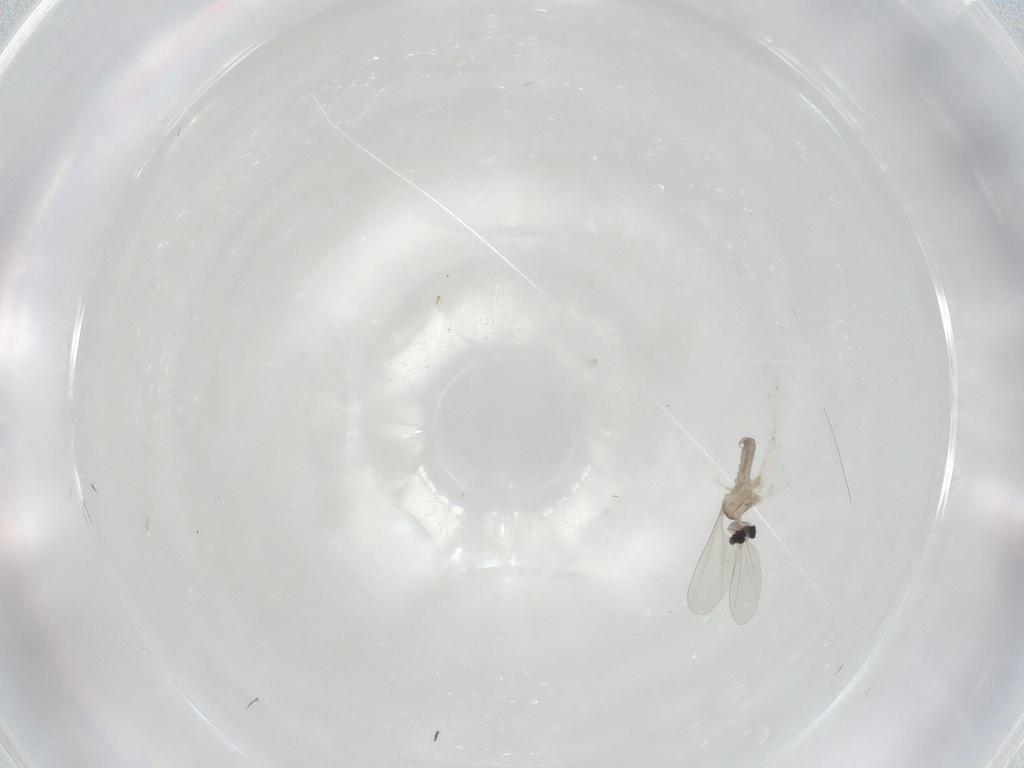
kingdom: Animalia
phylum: Arthropoda
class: Insecta
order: Diptera
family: Cecidomyiidae
